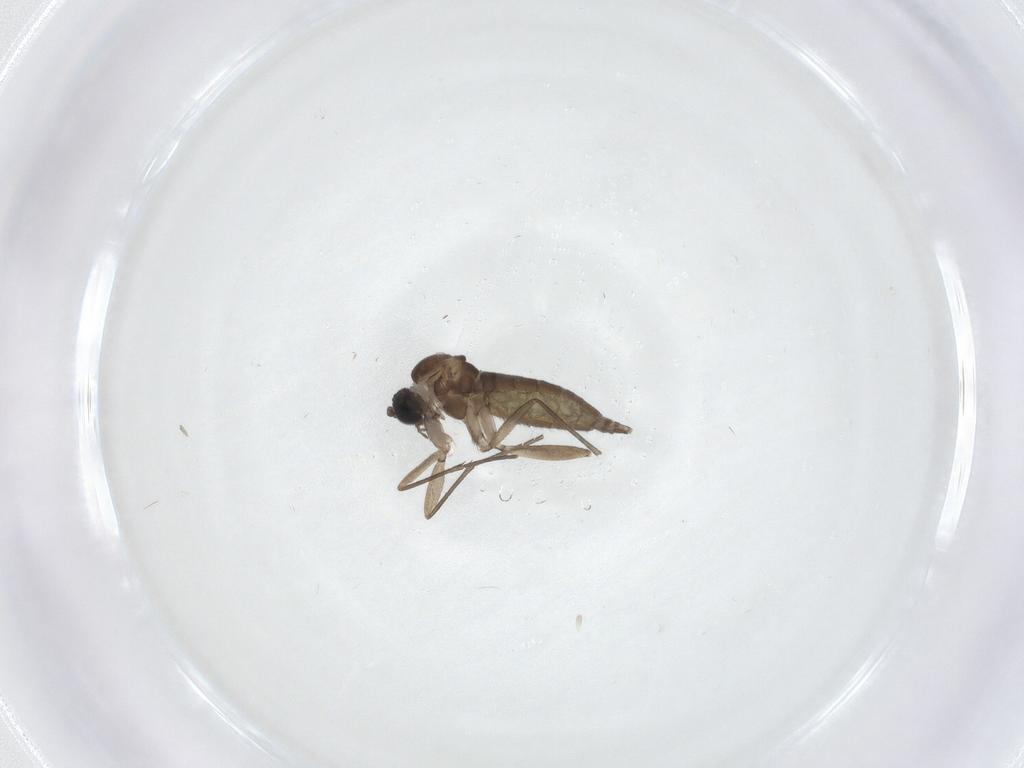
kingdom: Animalia
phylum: Arthropoda
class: Insecta
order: Diptera
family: Sciaridae
